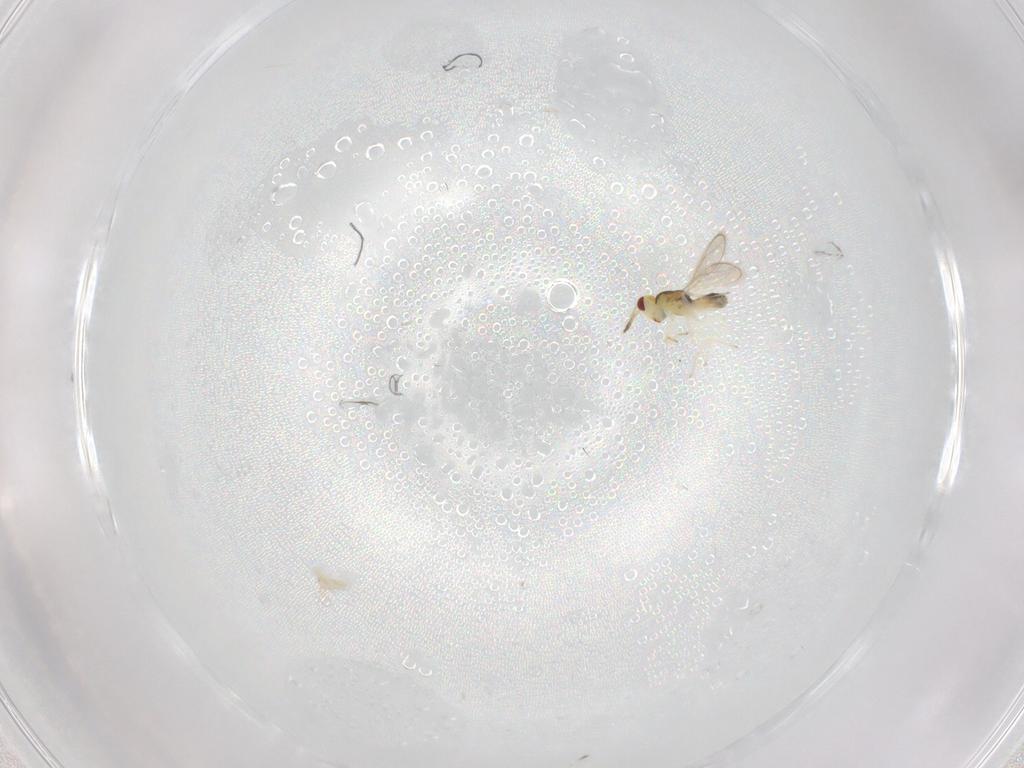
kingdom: Animalia
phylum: Arthropoda
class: Insecta
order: Hymenoptera
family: Eulophidae
